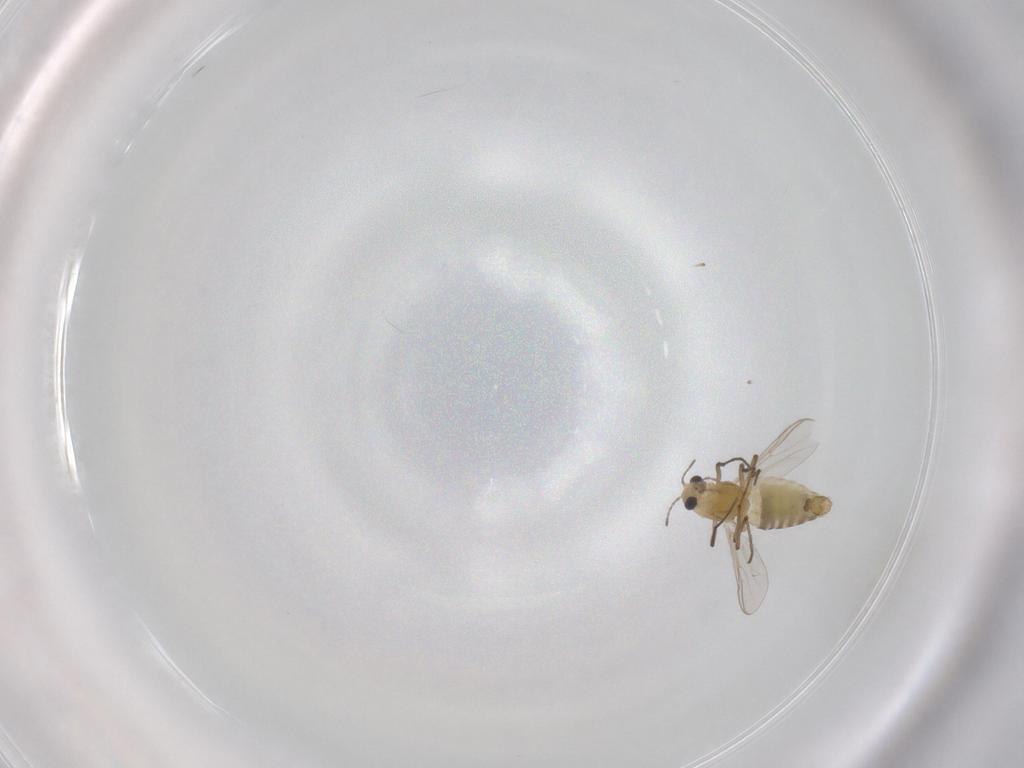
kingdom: Animalia
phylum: Arthropoda
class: Insecta
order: Diptera
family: Chironomidae
